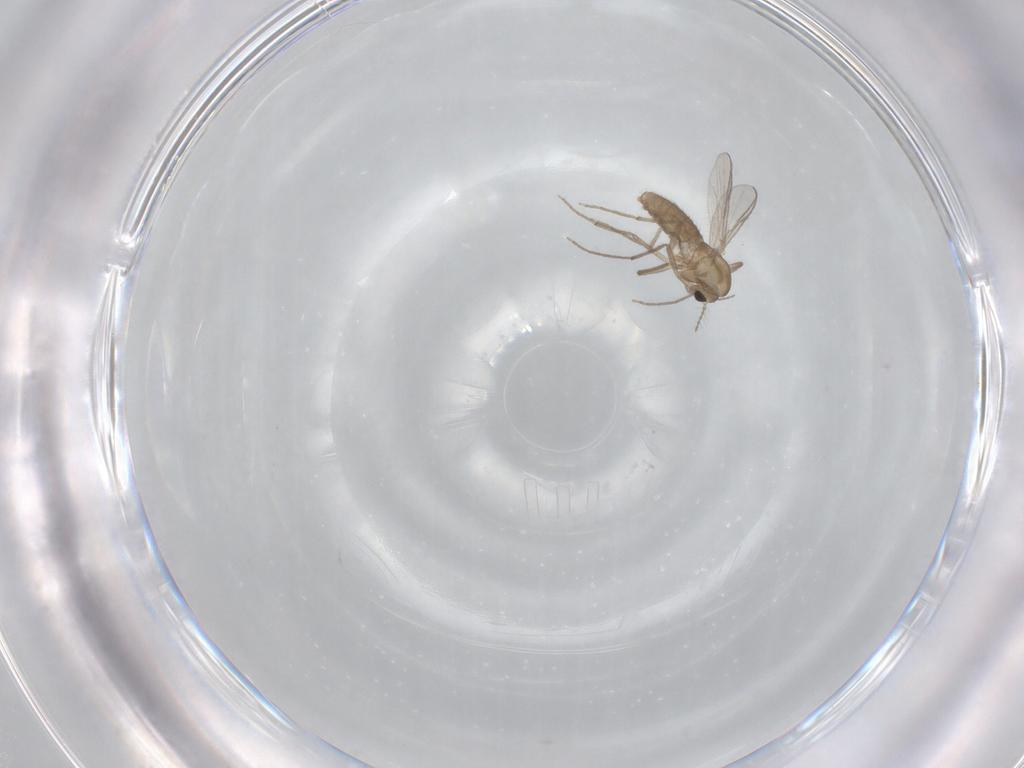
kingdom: Animalia
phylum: Arthropoda
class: Insecta
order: Diptera
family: Chironomidae
